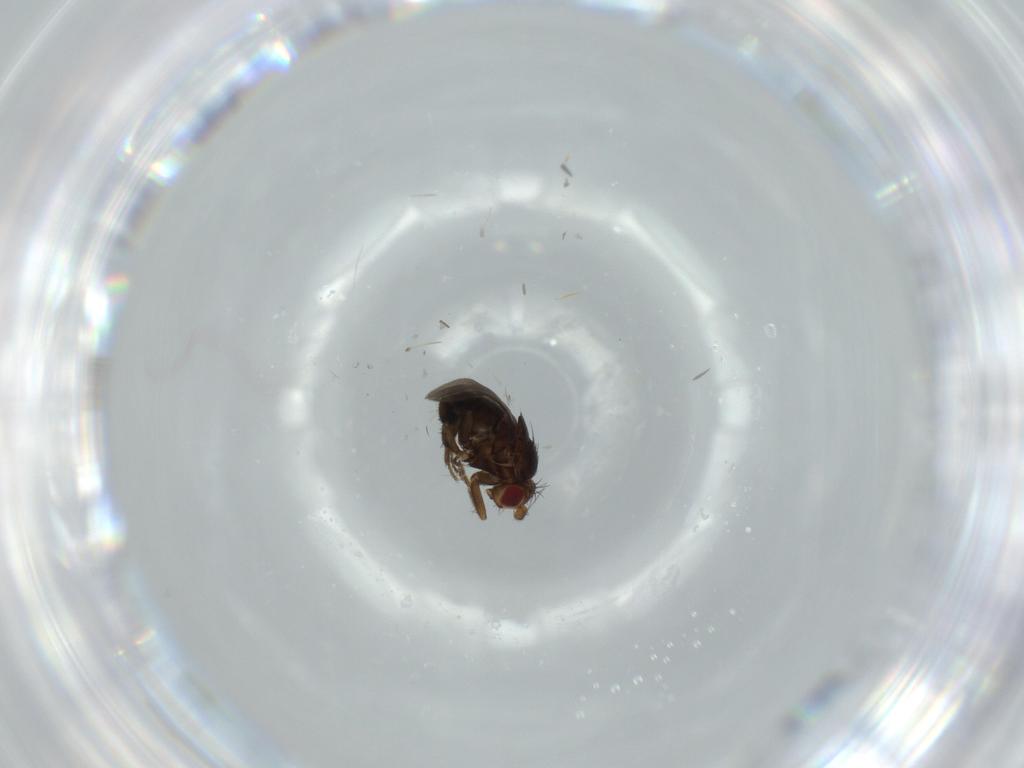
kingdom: Animalia
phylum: Arthropoda
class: Insecta
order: Diptera
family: Sphaeroceridae
